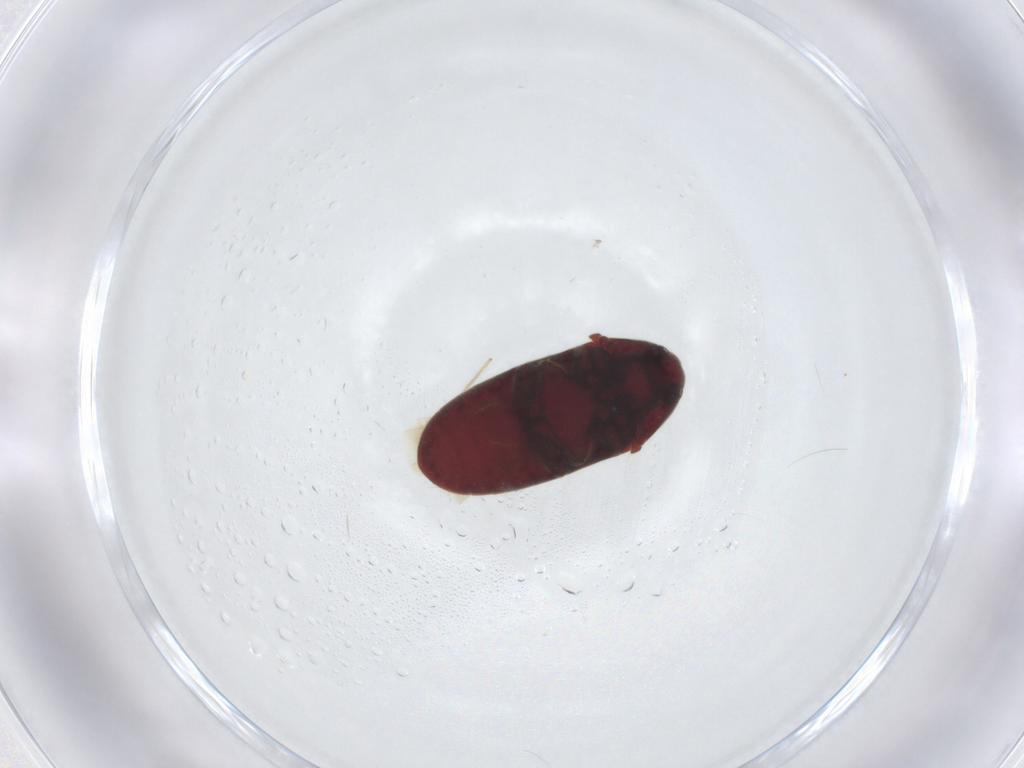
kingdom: Animalia
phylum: Arthropoda
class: Insecta
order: Coleoptera
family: Throscidae
